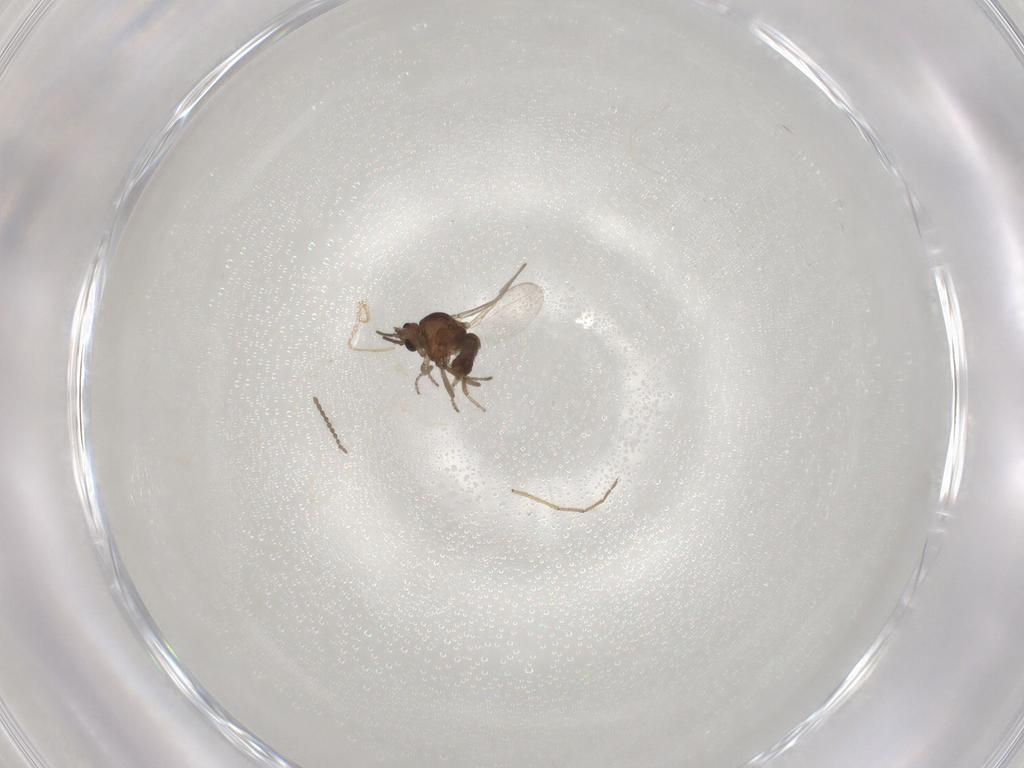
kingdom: Animalia
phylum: Arthropoda
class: Insecta
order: Diptera
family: Ceratopogonidae
